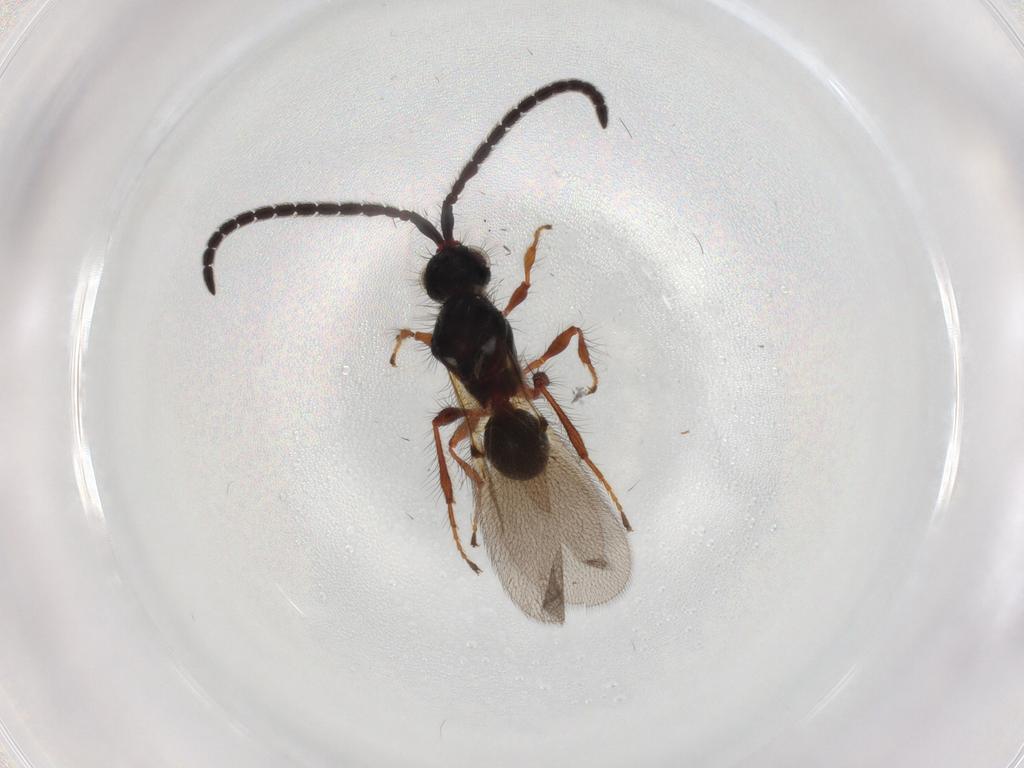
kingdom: Animalia
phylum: Arthropoda
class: Insecta
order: Hymenoptera
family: Diapriidae
